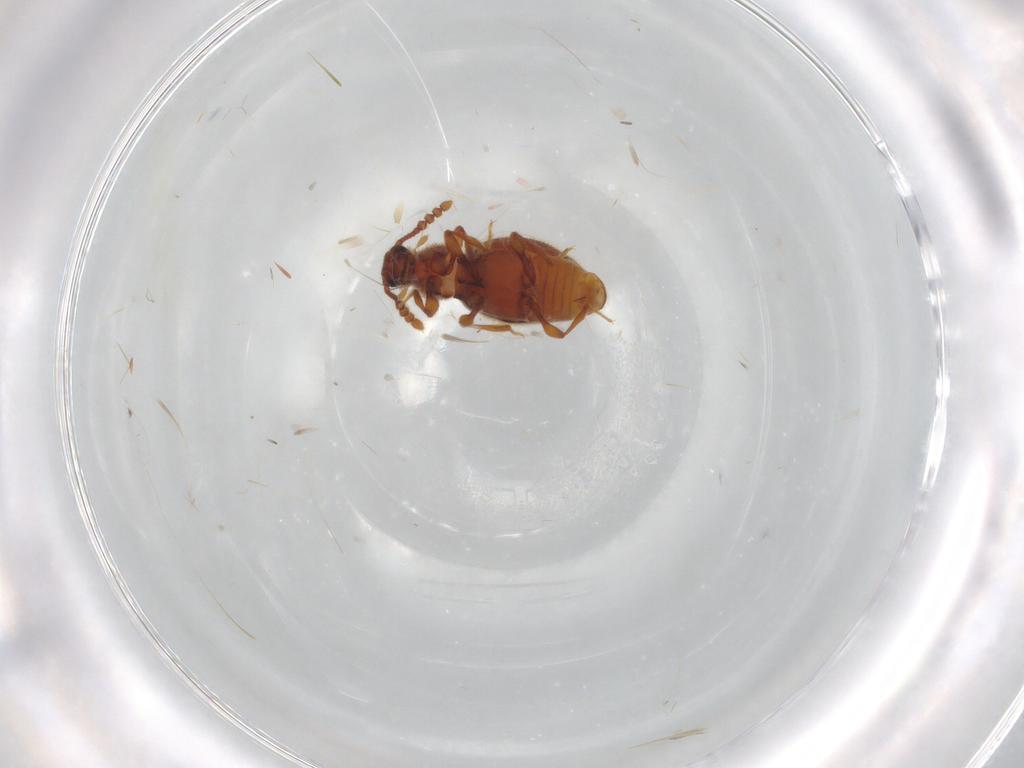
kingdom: Animalia
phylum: Arthropoda
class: Insecta
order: Coleoptera
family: Staphylinidae
